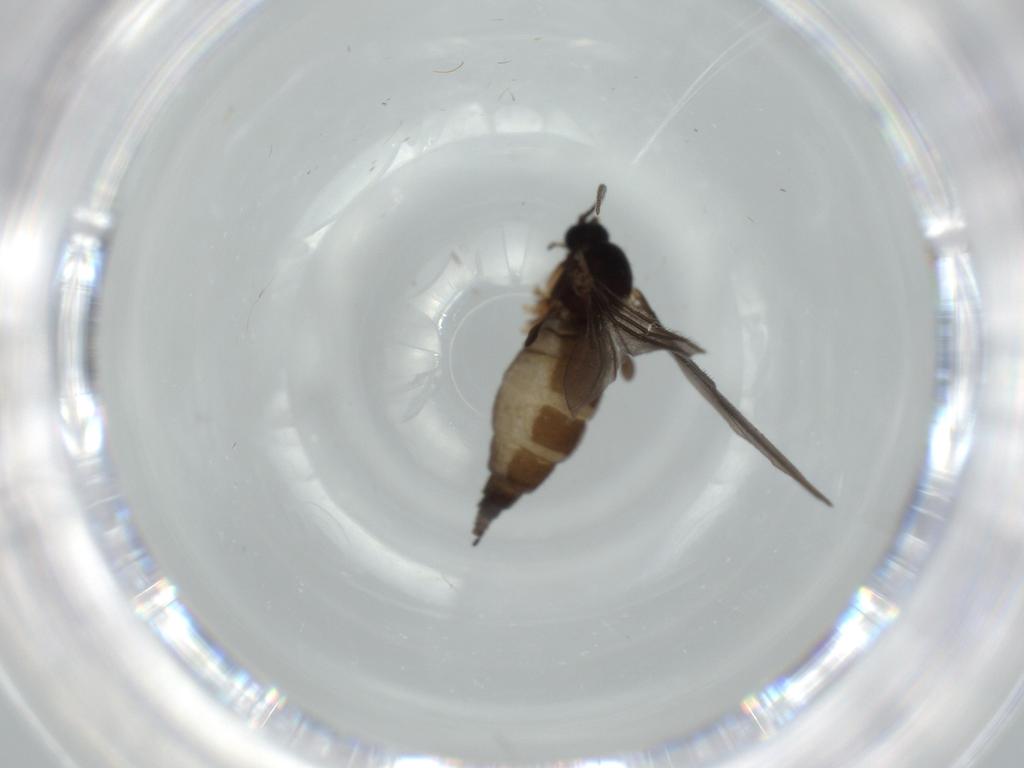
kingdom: Animalia
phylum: Arthropoda
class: Insecta
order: Diptera
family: Sciaridae
